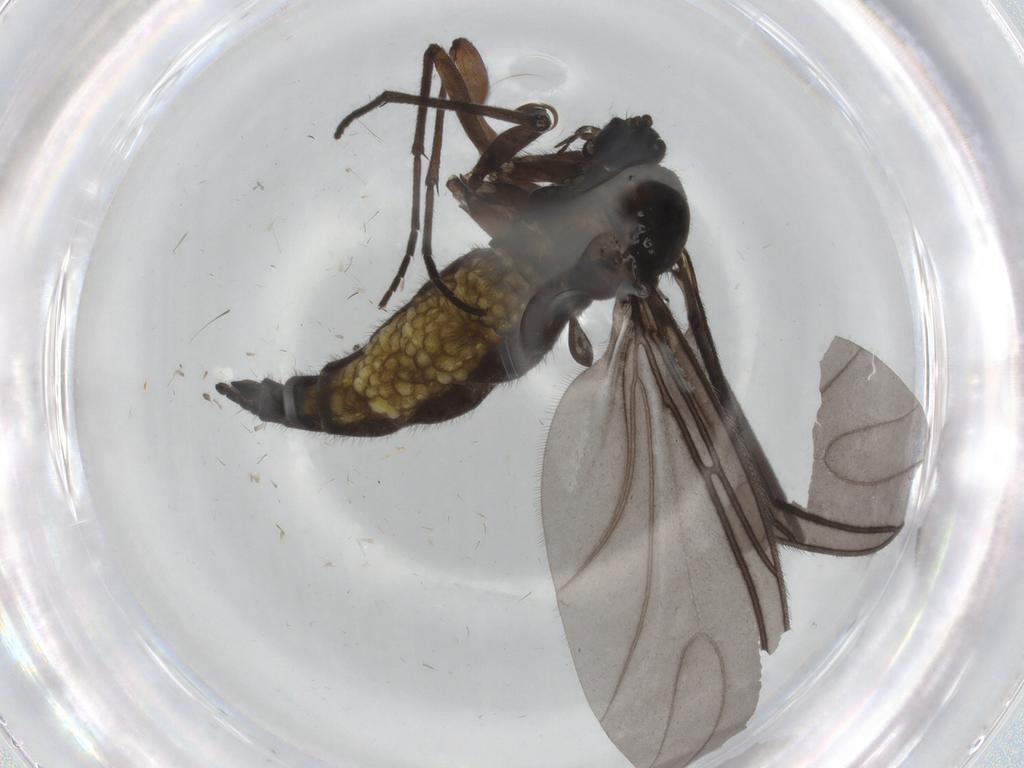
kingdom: Animalia
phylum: Arthropoda
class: Insecta
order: Diptera
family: Sciaridae
